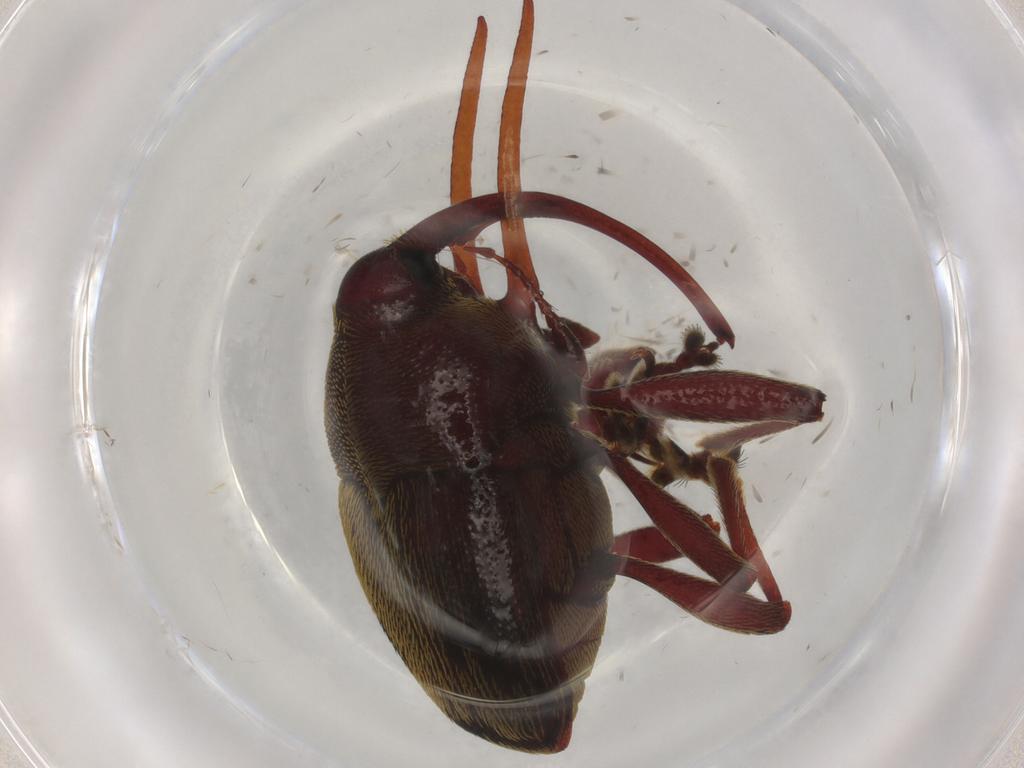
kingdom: Animalia
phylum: Arthropoda
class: Insecta
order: Coleoptera
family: Curculionidae
